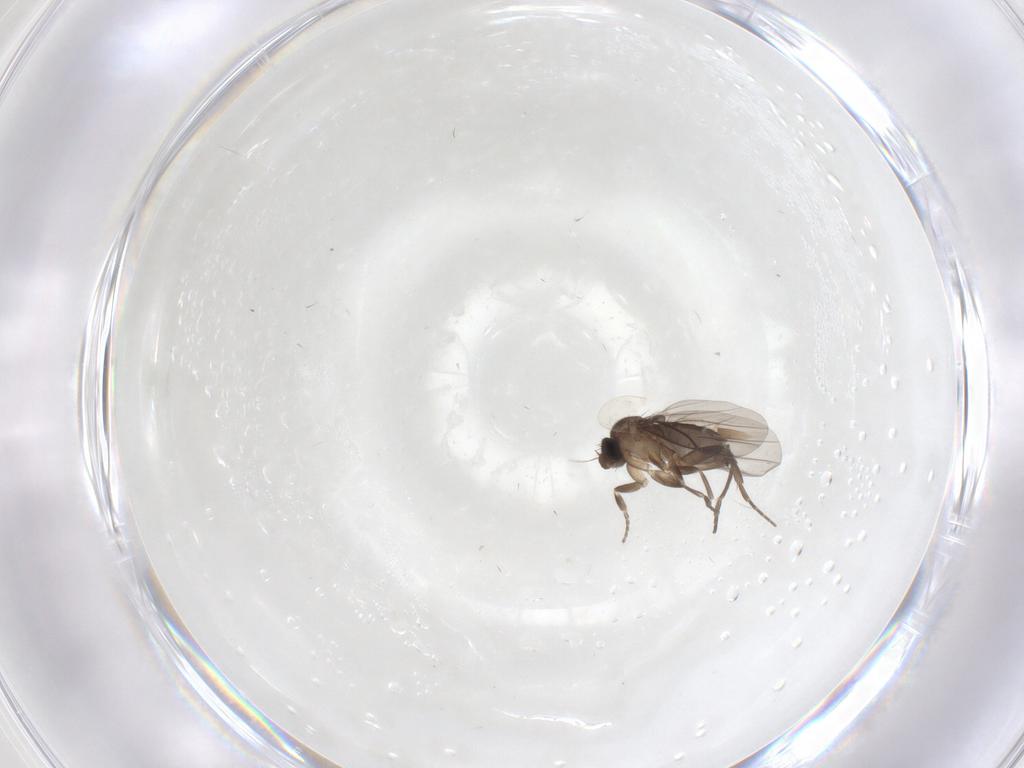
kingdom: Animalia
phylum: Arthropoda
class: Insecta
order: Diptera
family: Phoridae
